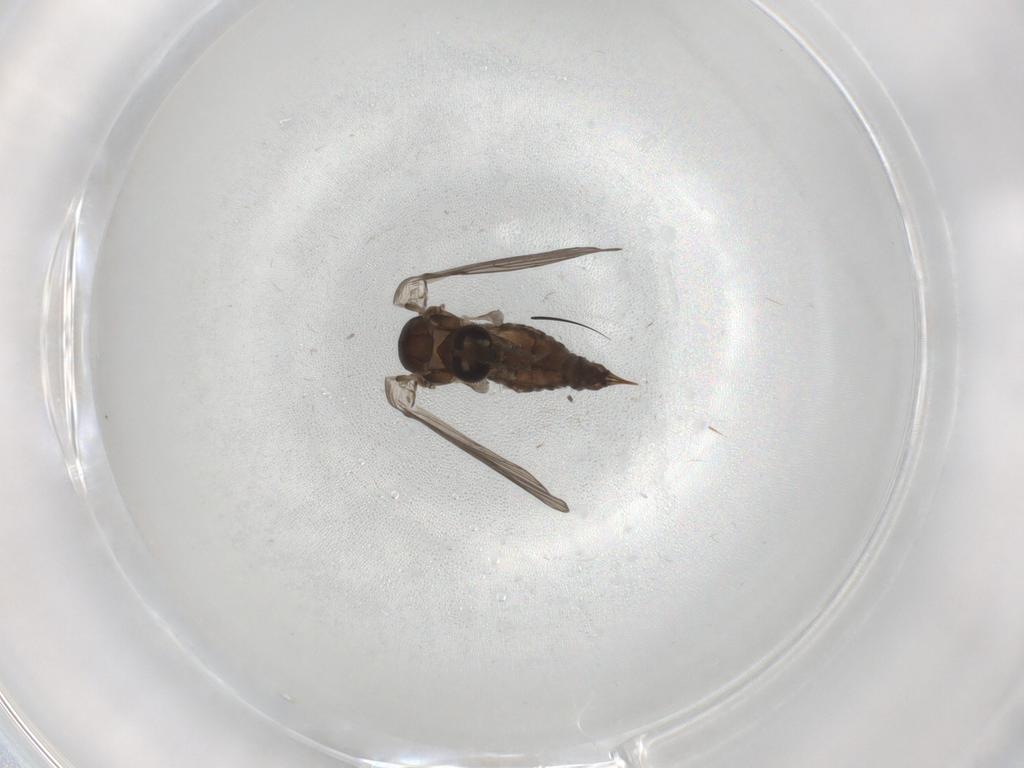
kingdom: Animalia
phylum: Arthropoda
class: Insecta
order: Diptera
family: Psychodidae
